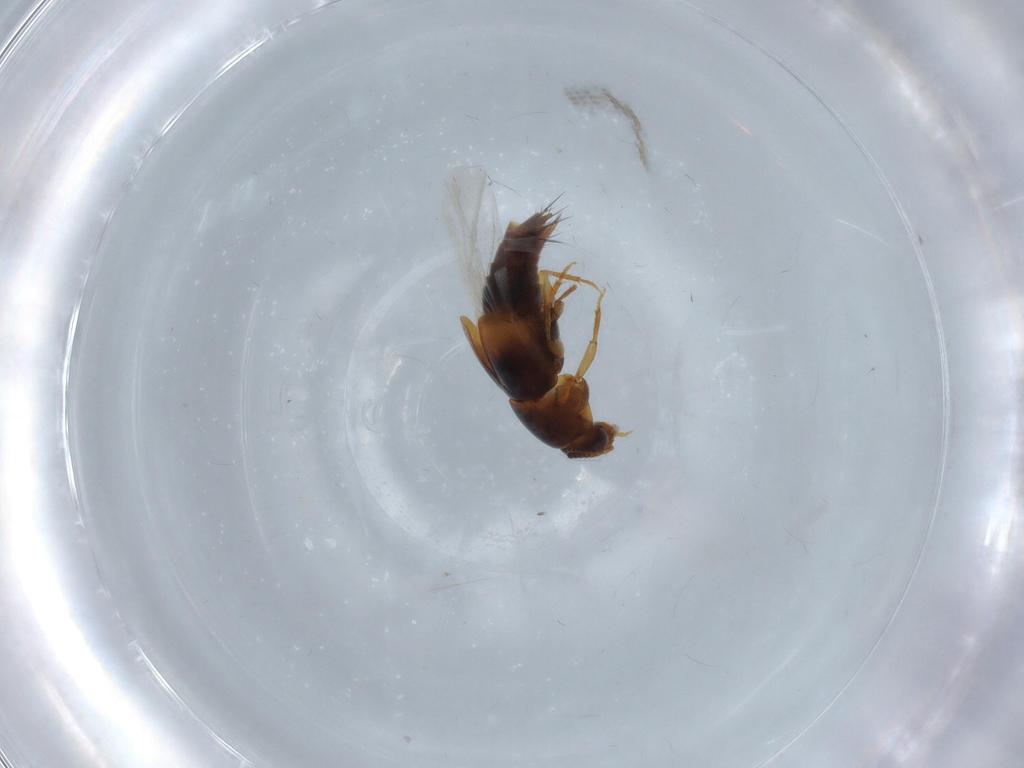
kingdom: Animalia
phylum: Arthropoda
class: Insecta
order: Coleoptera
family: Staphylinidae
